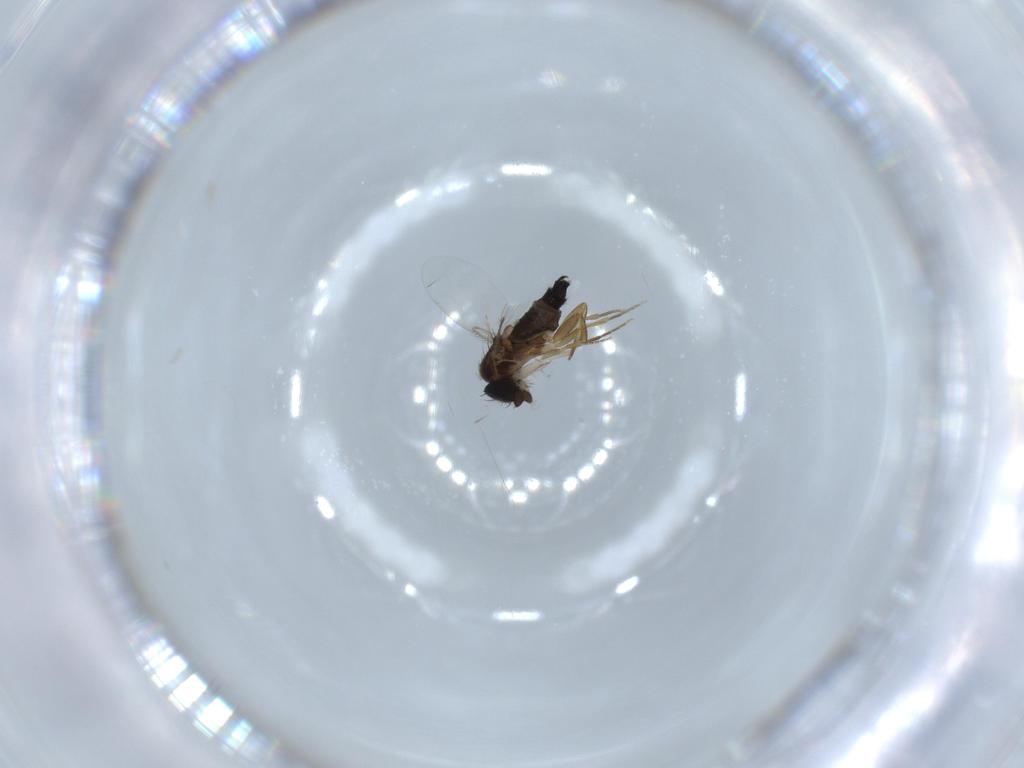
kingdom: Animalia
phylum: Arthropoda
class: Insecta
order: Diptera
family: Phoridae
